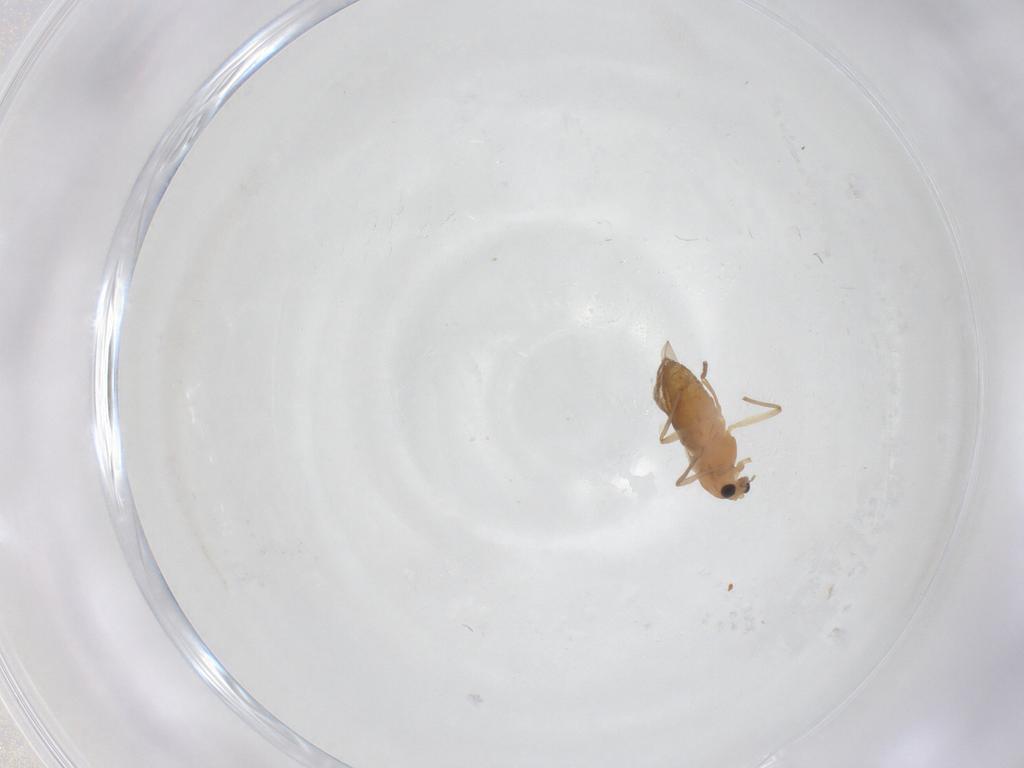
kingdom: Animalia
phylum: Arthropoda
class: Insecta
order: Diptera
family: Chironomidae
